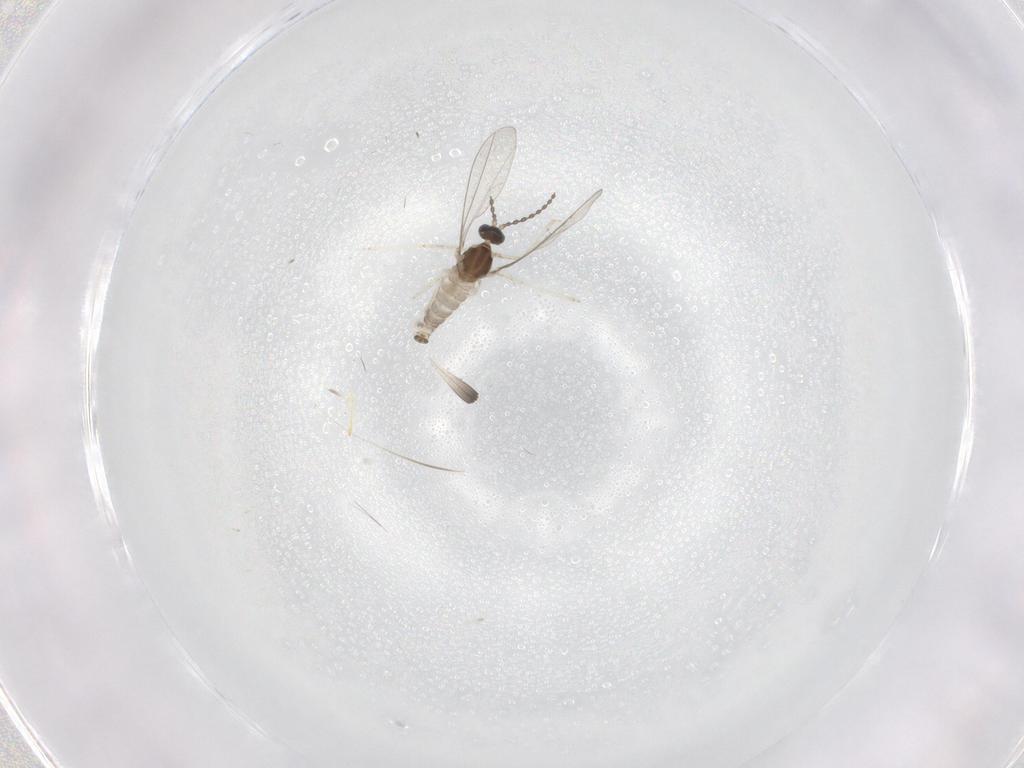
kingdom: Animalia
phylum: Arthropoda
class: Insecta
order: Diptera
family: Cecidomyiidae
